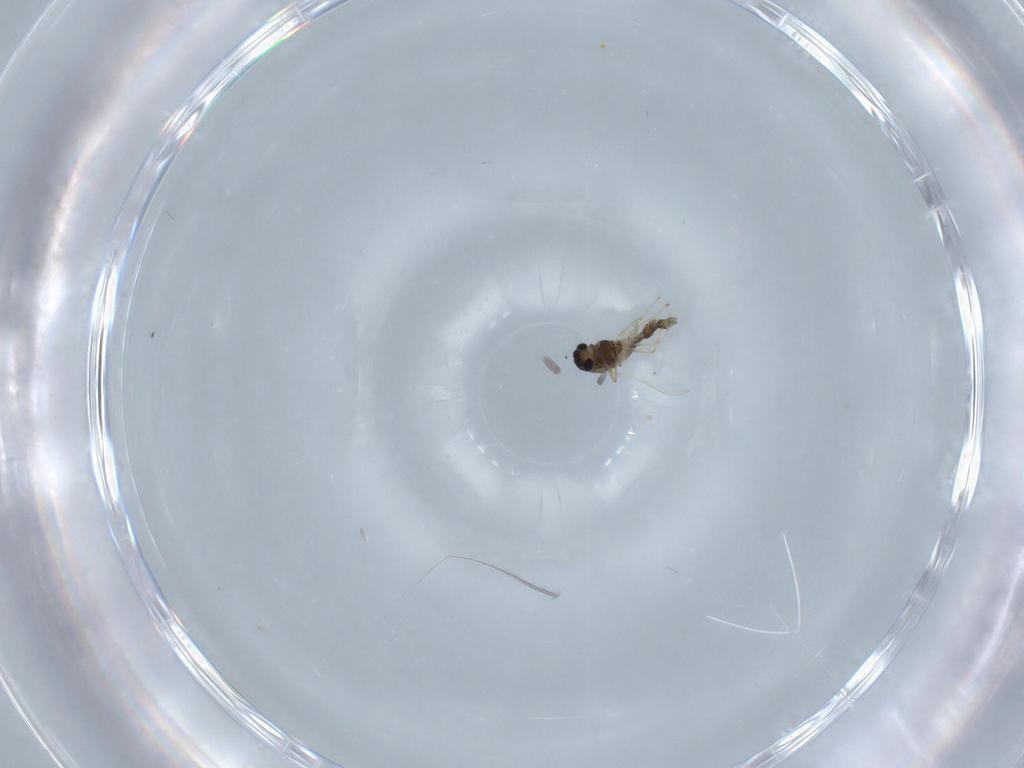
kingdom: Animalia
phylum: Arthropoda
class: Insecta
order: Diptera
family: Chironomidae
